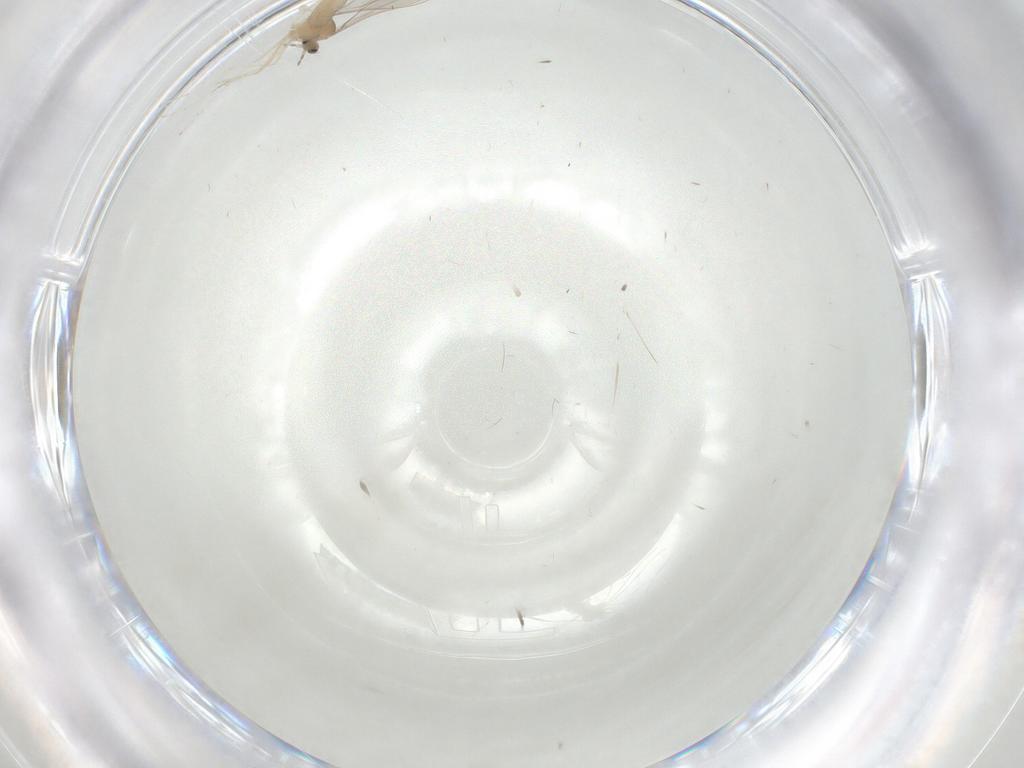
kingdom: Animalia
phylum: Arthropoda
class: Insecta
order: Diptera
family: Cecidomyiidae
